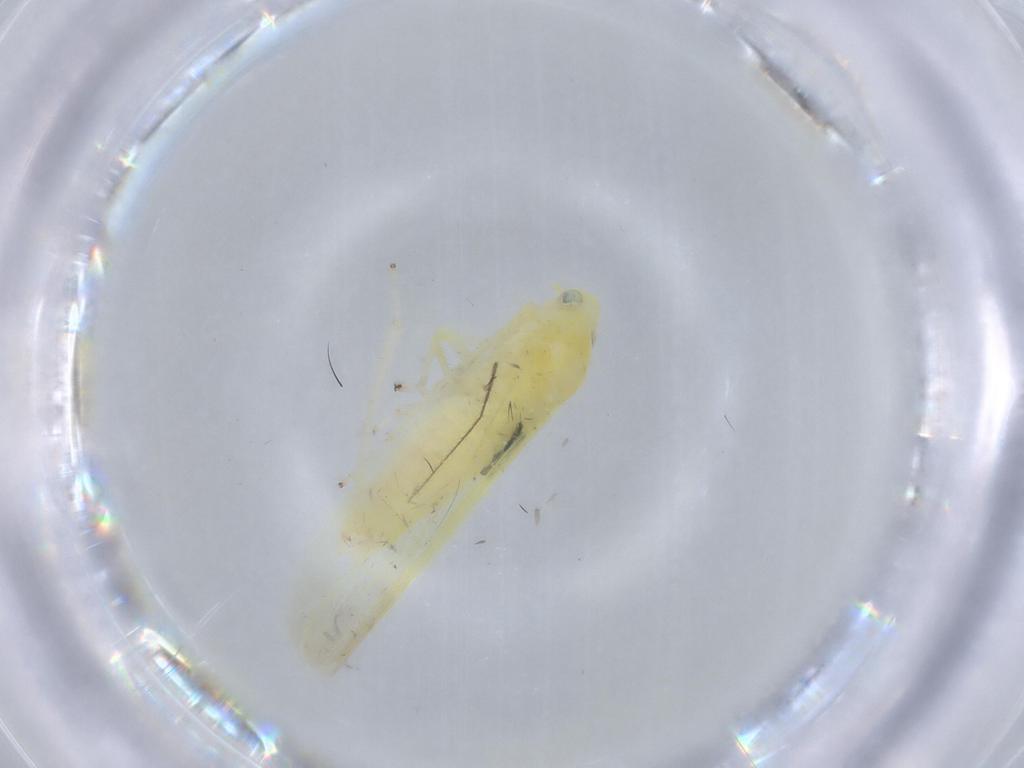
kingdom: Animalia
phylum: Arthropoda
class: Insecta
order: Hemiptera
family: Cicadellidae
